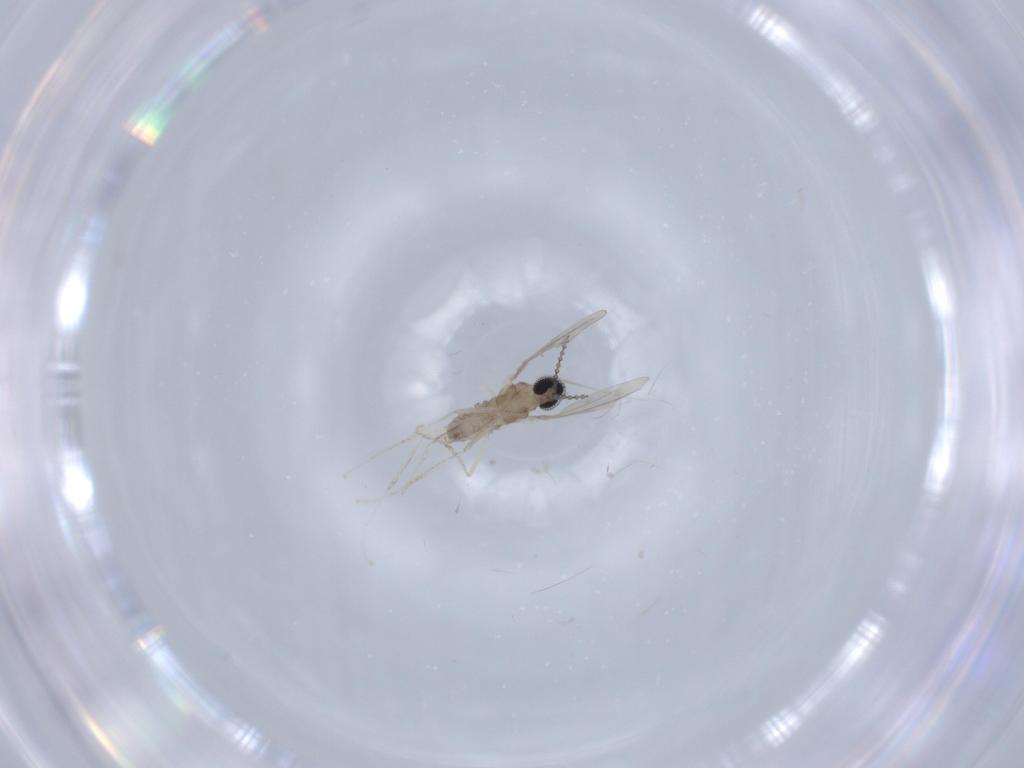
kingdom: Animalia
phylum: Arthropoda
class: Insecta
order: Diptera
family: Cecidomyiidae
